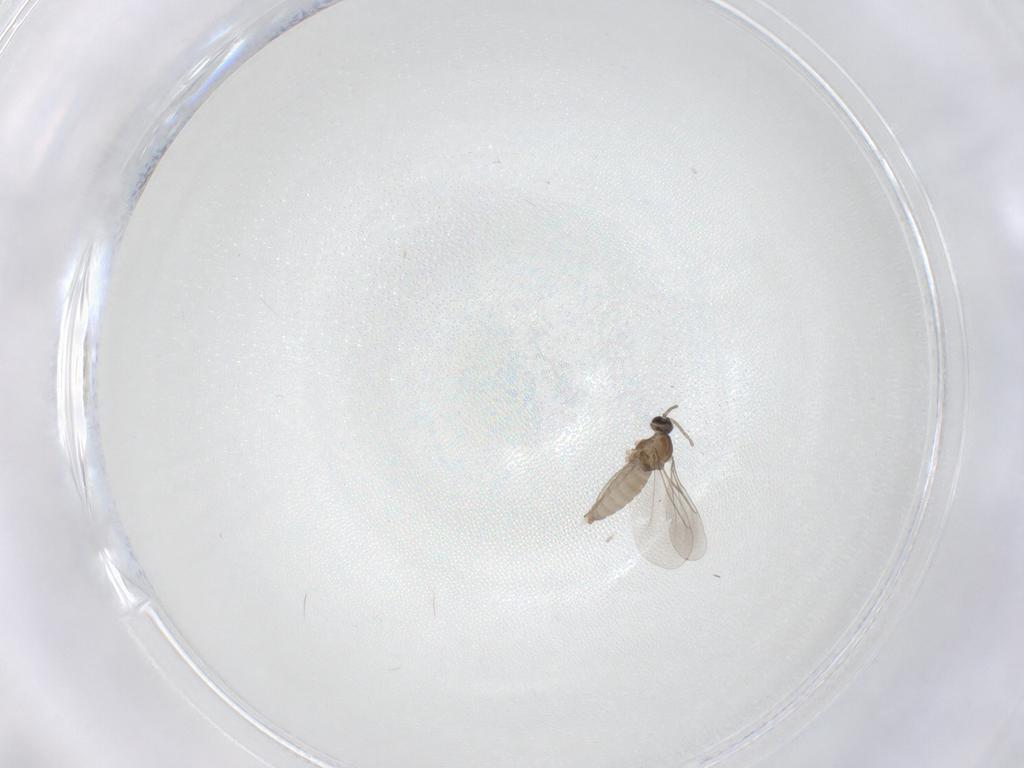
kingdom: Animalia
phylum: Arthropoda
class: Insecta
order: Diptera
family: Cecidomyiidae
